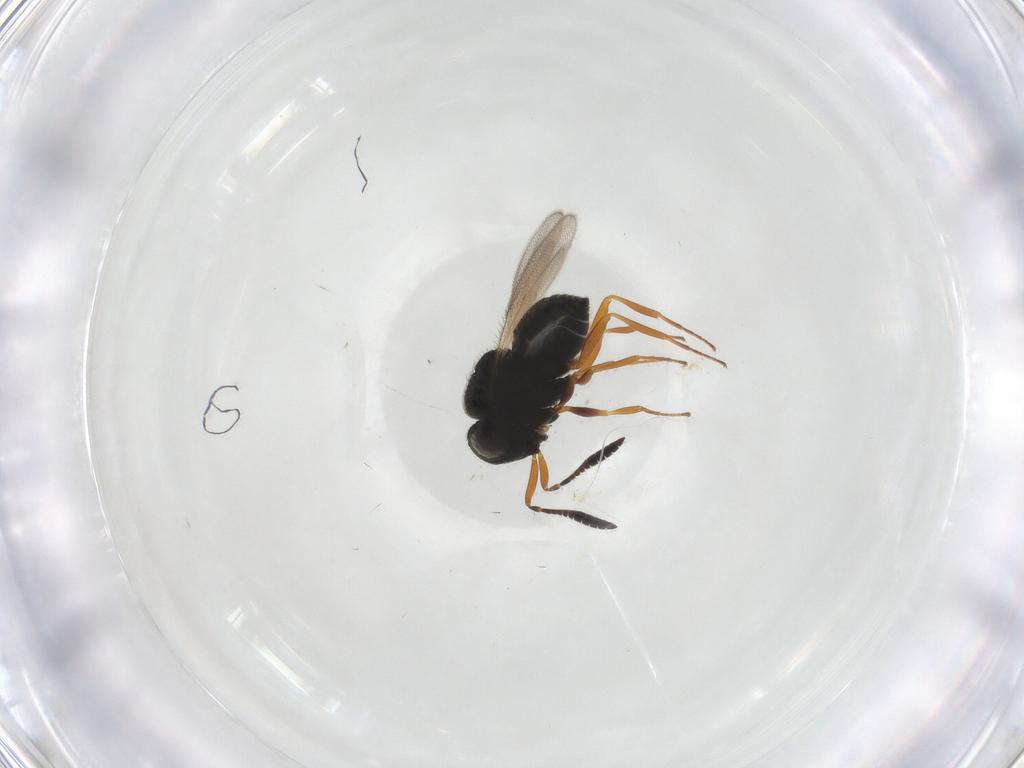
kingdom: Animalia
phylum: Arthropoda
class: Insecta
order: Hymenoptera
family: Scelionidae
